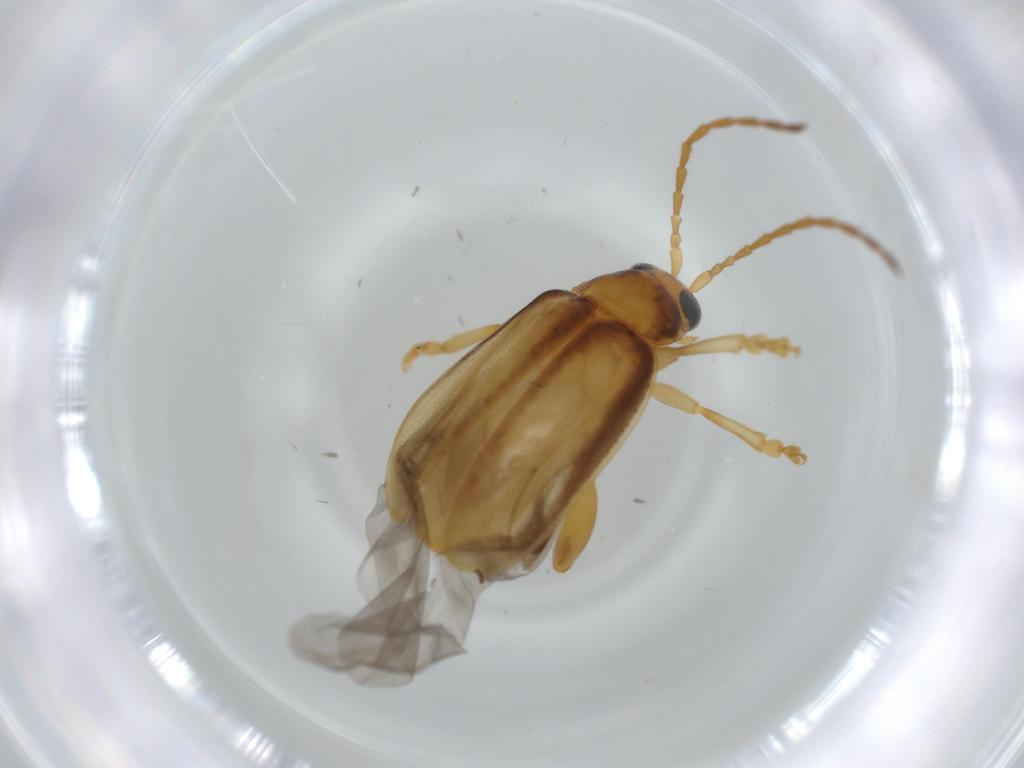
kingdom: Animalia
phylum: Arthropoda
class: Insecta
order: Coleoptera
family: Chrysomelidae
